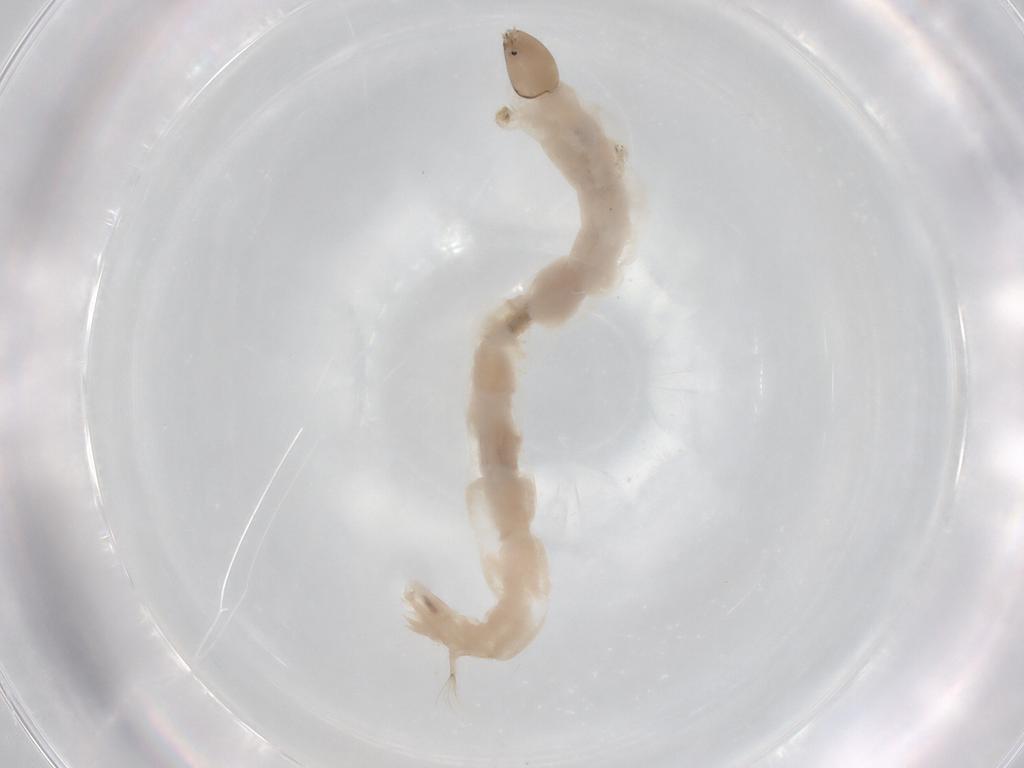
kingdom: Animalia
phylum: Arthropoda
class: Insecta
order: Diptera
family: Chironomidae
